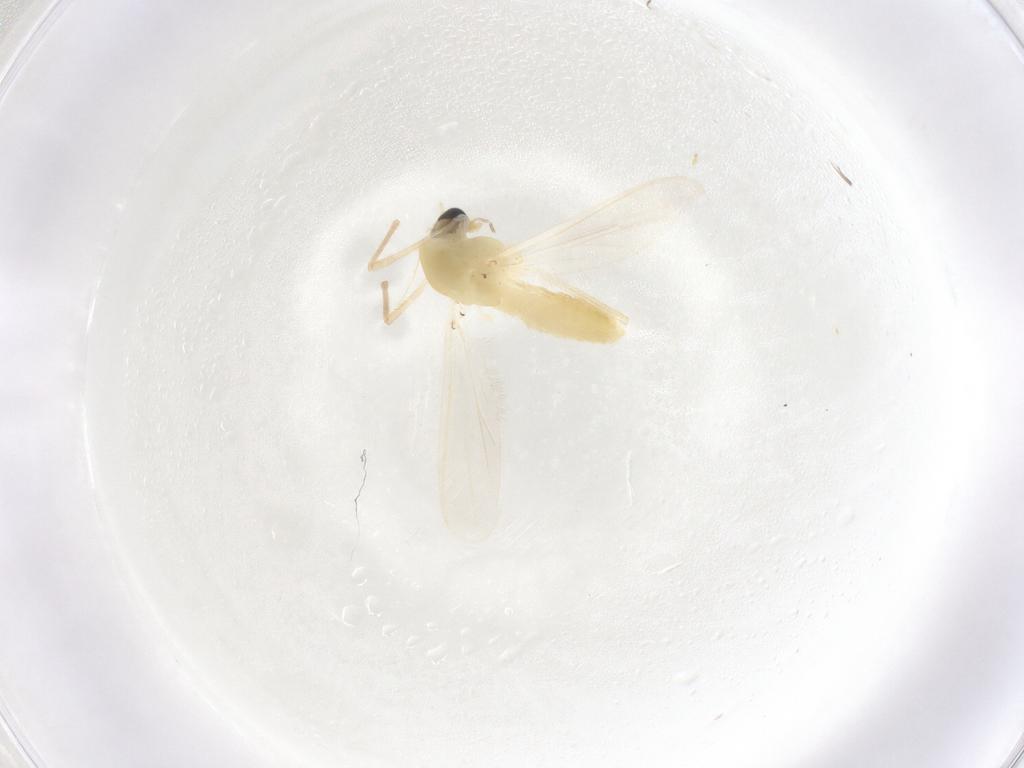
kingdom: Animalia
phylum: Arthropoda
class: Insecta
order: Diptera
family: Chironomidae
